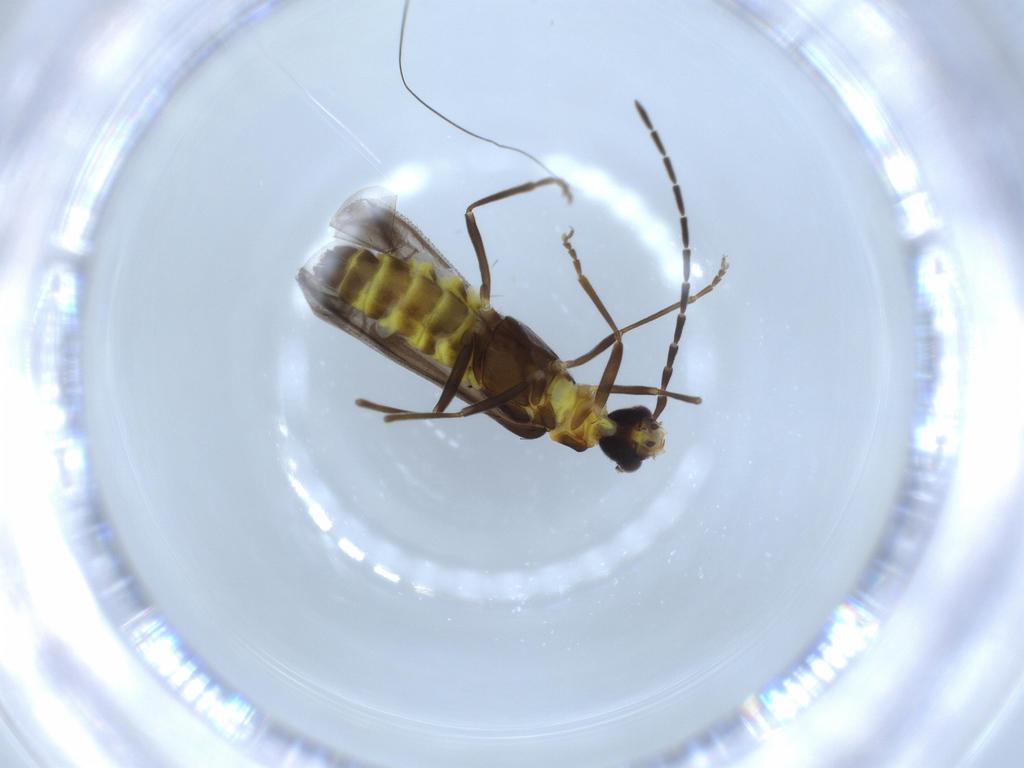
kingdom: Animalia
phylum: Arthropoda
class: Insecta
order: Coleoptera
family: Cantharidae
